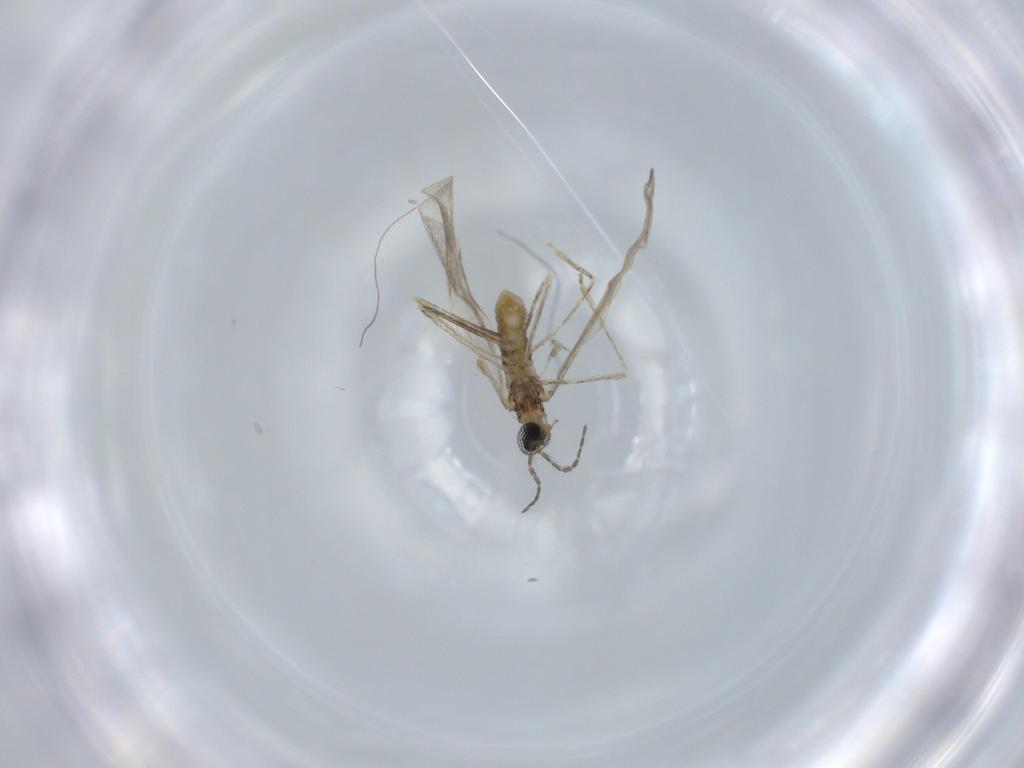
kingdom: Animalia
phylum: Arthropoda
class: Insecta
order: Diptera
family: Cecidomyiidae
